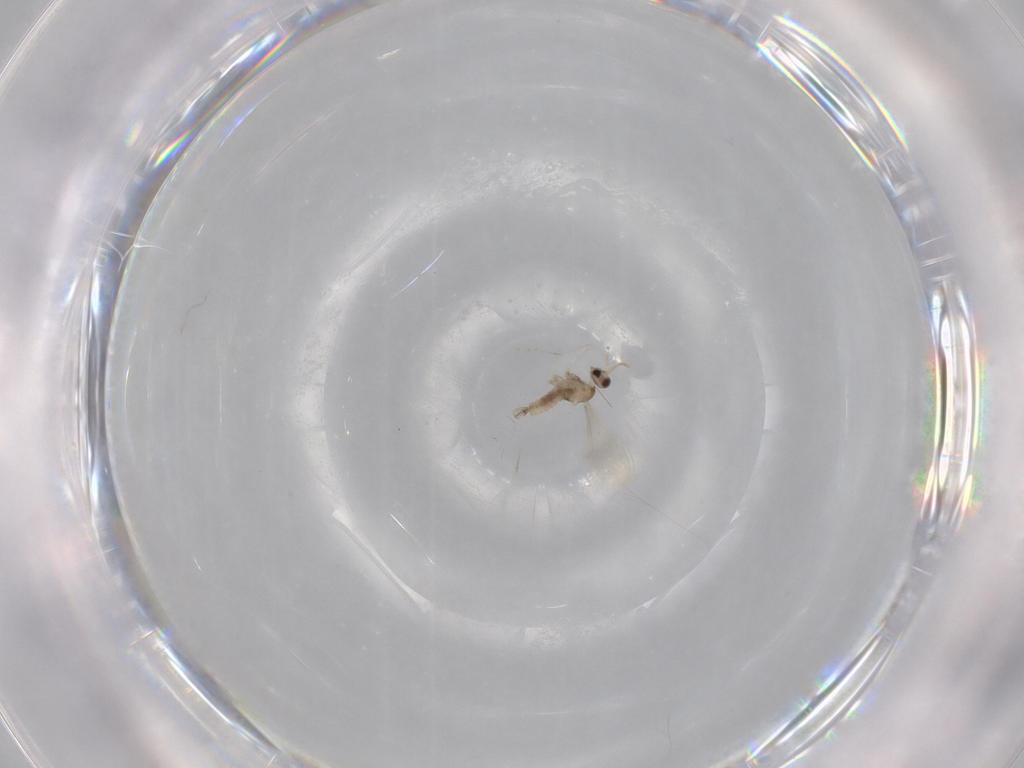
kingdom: Animalia
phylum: Arthropoda
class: Insecta
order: Diptera
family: Cecidomyiidae
